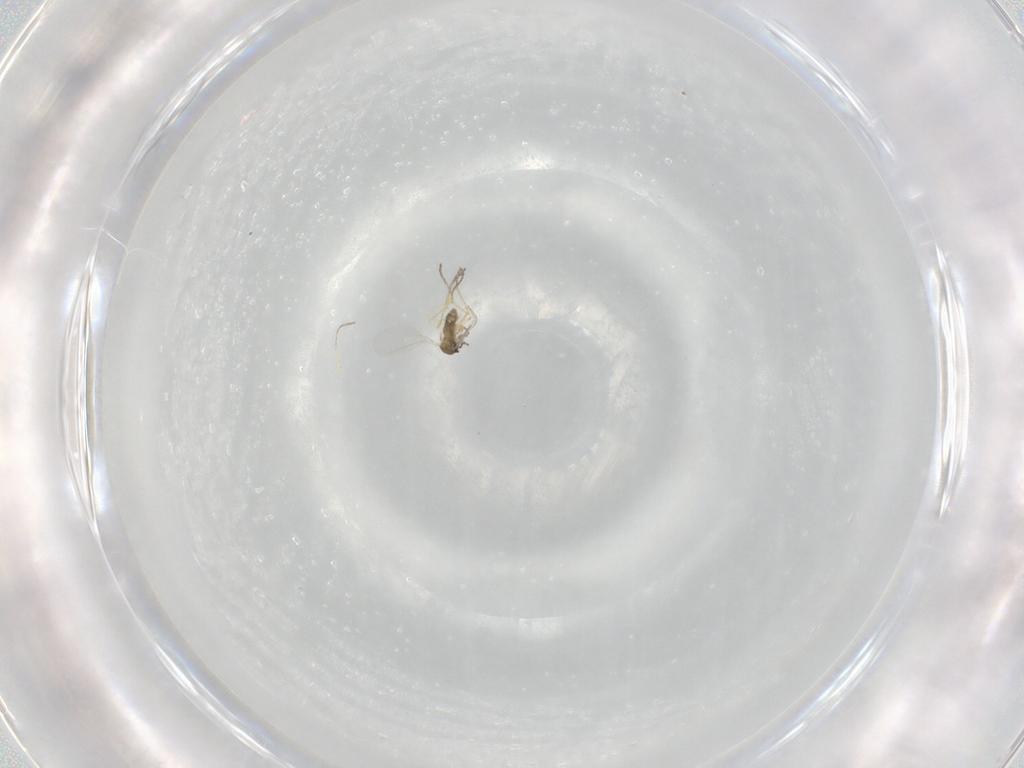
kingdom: Animalia
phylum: Arthropoda
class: Insecta
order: Diptera
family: Cecidomyiidae
